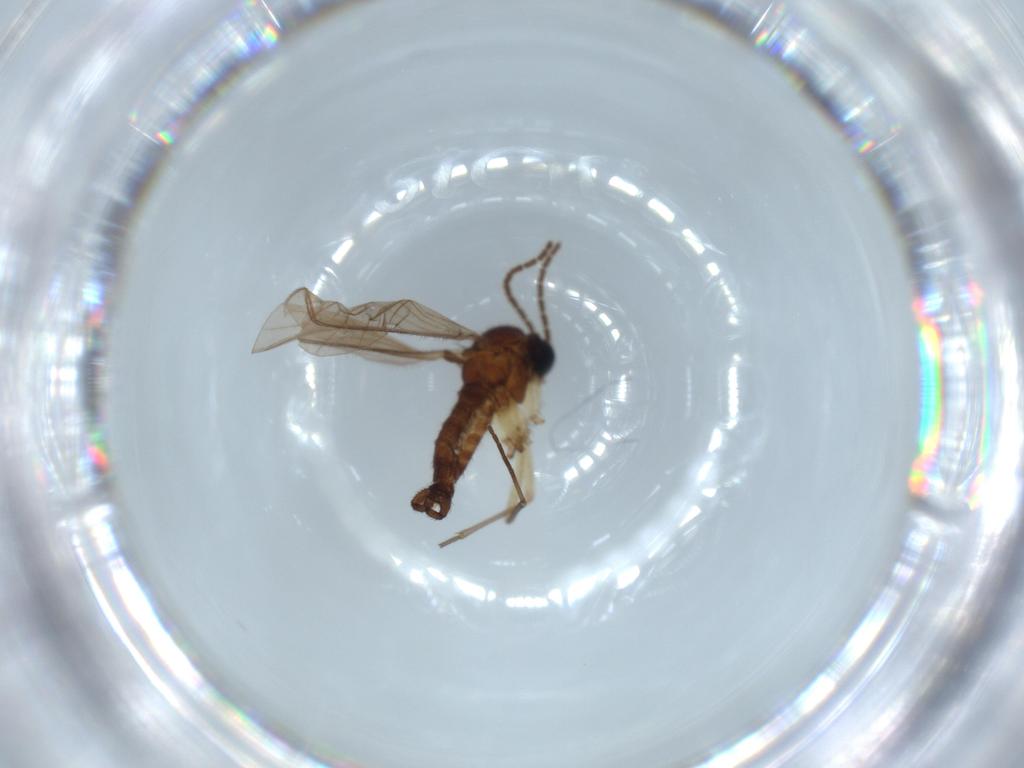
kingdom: Animalia
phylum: Arthropoda
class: Insecta
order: Diptera
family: Sciaridae
